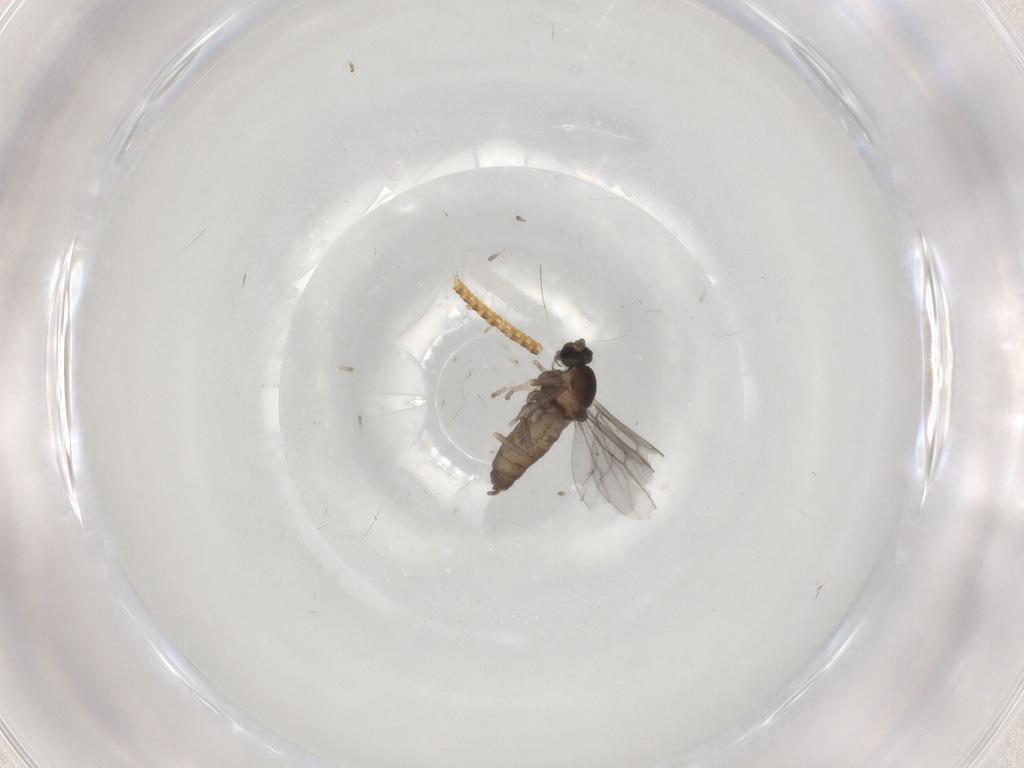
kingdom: Animalia
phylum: Arthropoda
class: Insecta
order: Diptera
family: Cecidomyiidae
